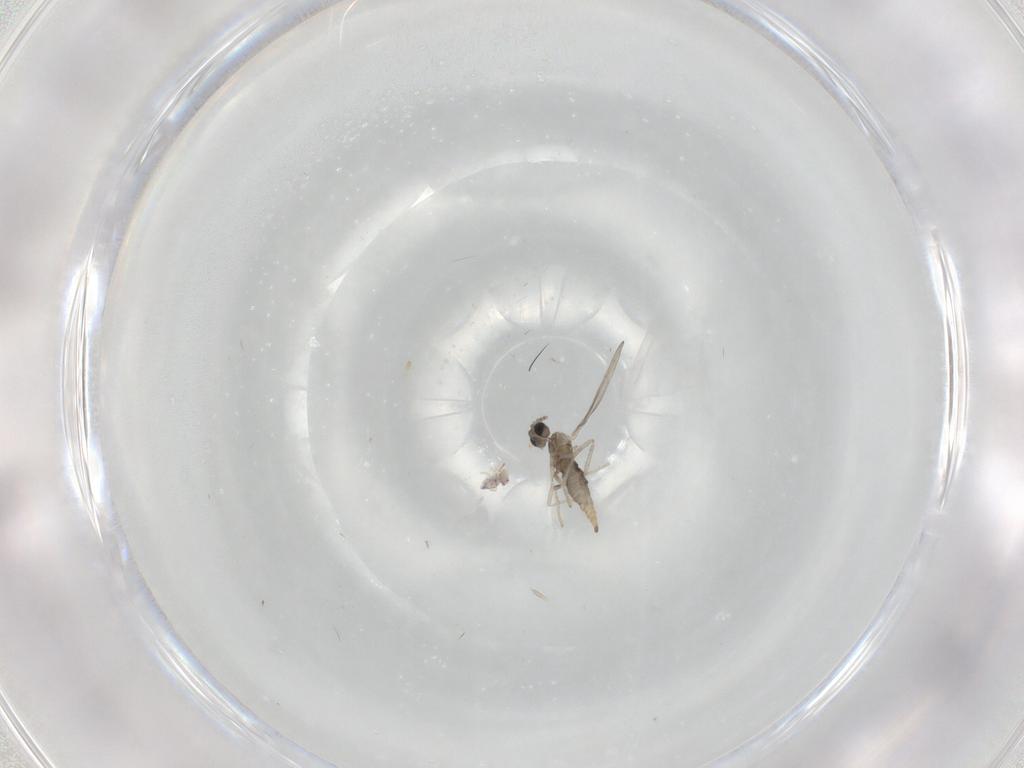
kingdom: Animalia
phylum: Arthropoda
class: Insecta
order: Diptera
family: Cecidomyiidae
